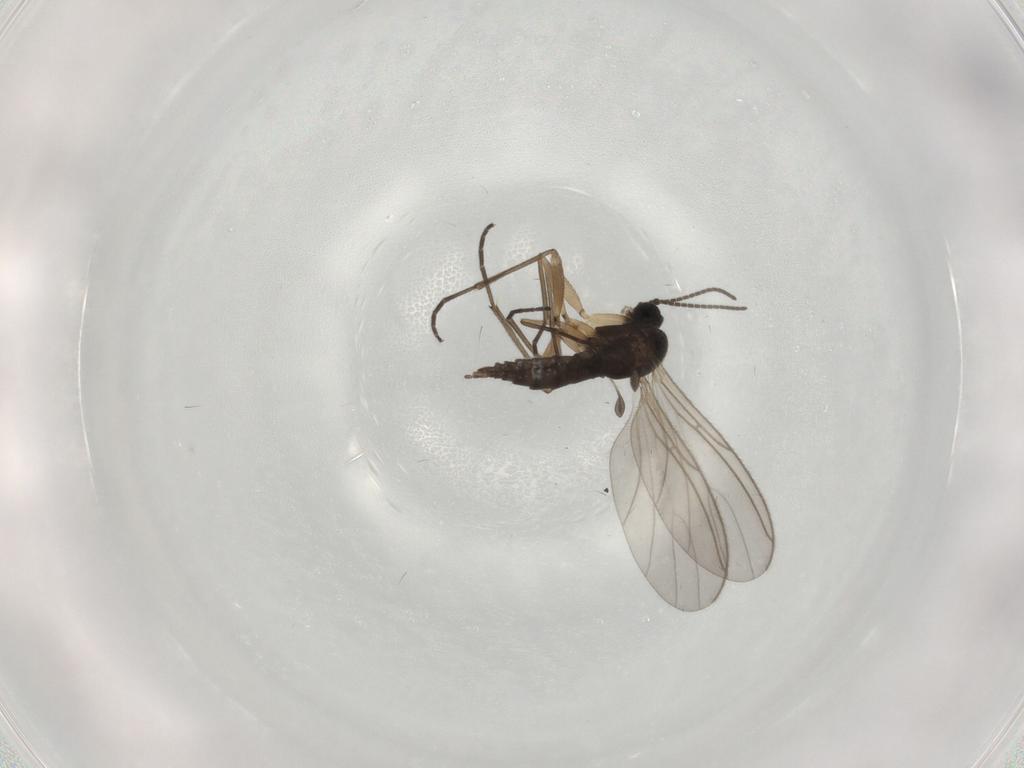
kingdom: Animalia
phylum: Arthropoda
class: Insecta
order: Diptera
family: Sciaridae
